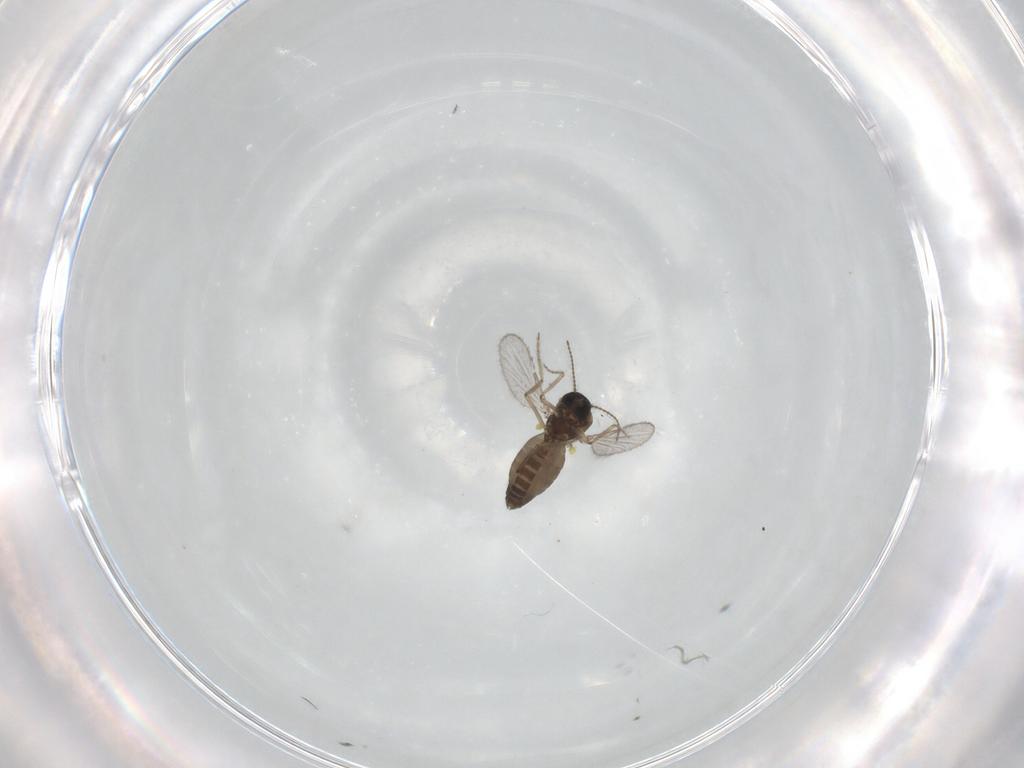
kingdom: Animalia
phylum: Arthropoda
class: Insecta
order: Diptera
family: Ceratopogonidae
